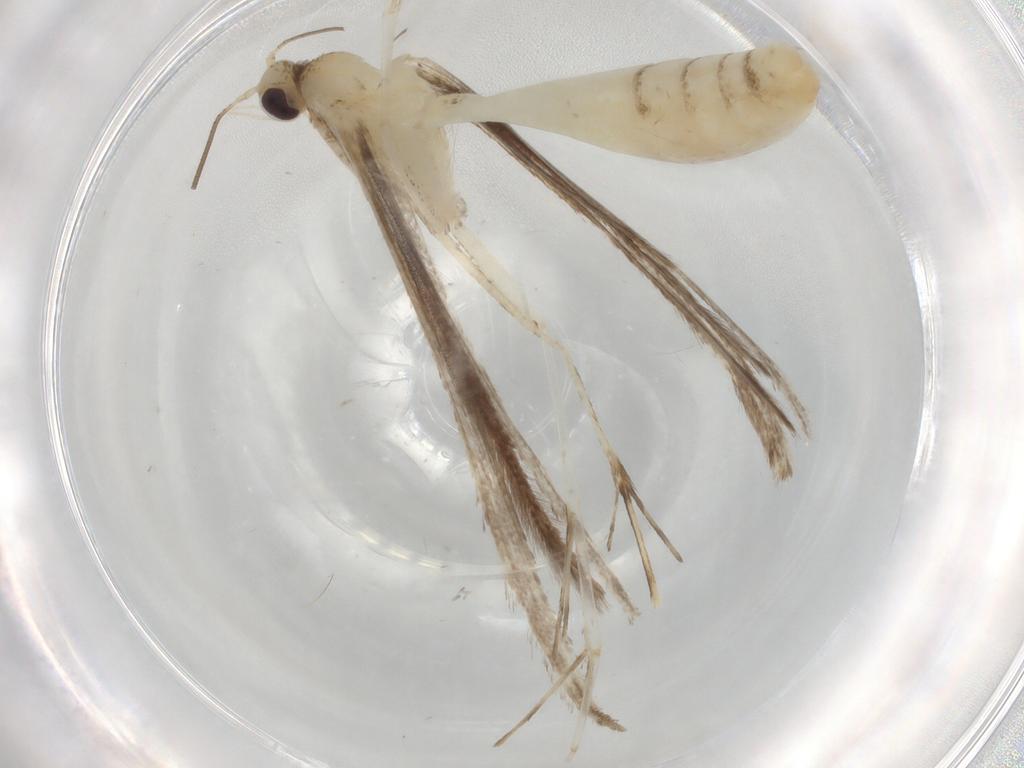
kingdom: Animalia
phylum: Arthropoda
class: Insecta
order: Lepidoptera
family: Pterophoridae
